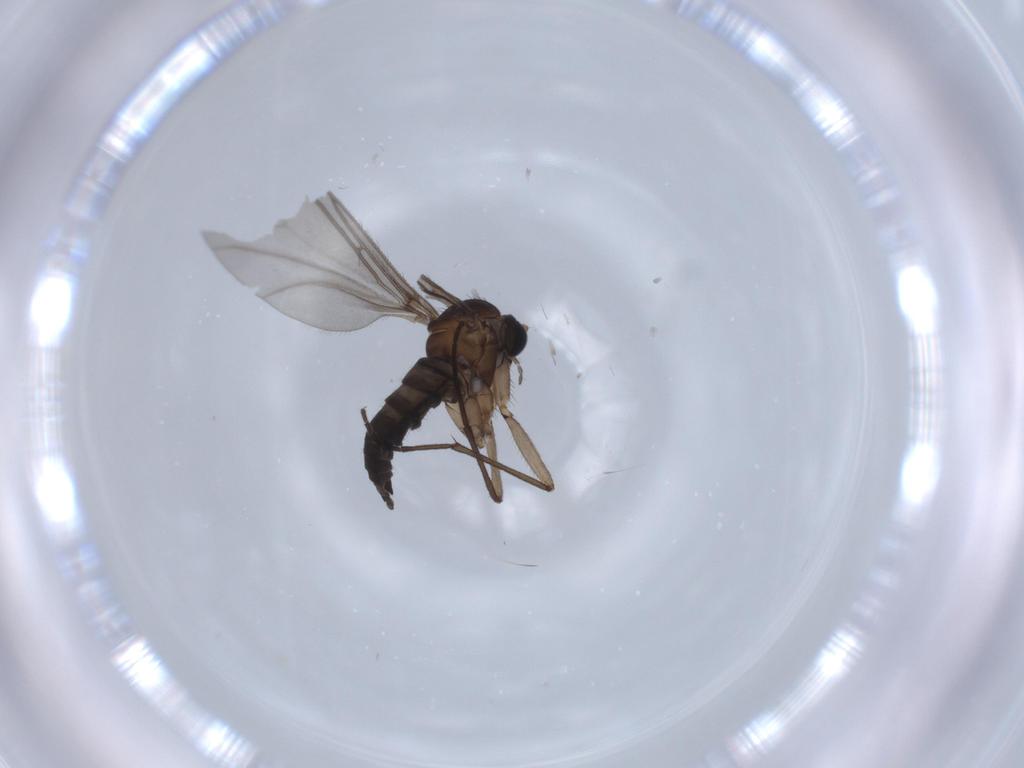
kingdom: Animalia
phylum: Arthropoda
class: Insecta
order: Diptera
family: Sciaridae
